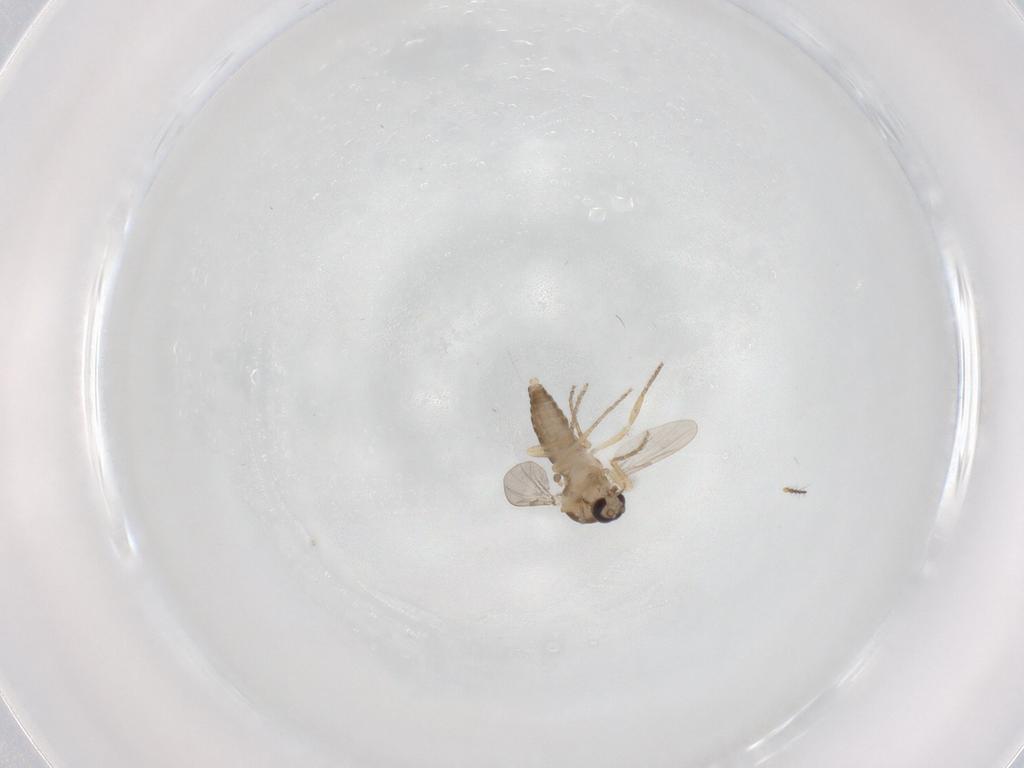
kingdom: Animalia
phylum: Arthropoda
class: Insecta
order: Diptera
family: Ceratopogonidae
